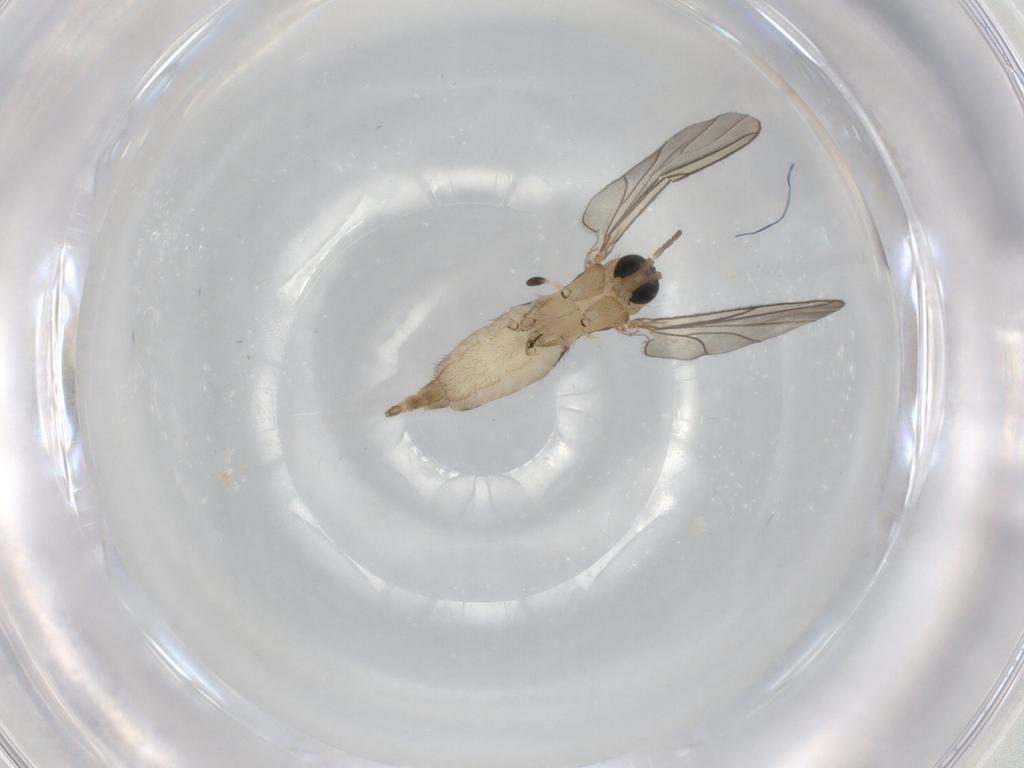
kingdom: Animalia
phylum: Arthropoda
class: Insecta
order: Diptera
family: Sciaridae
